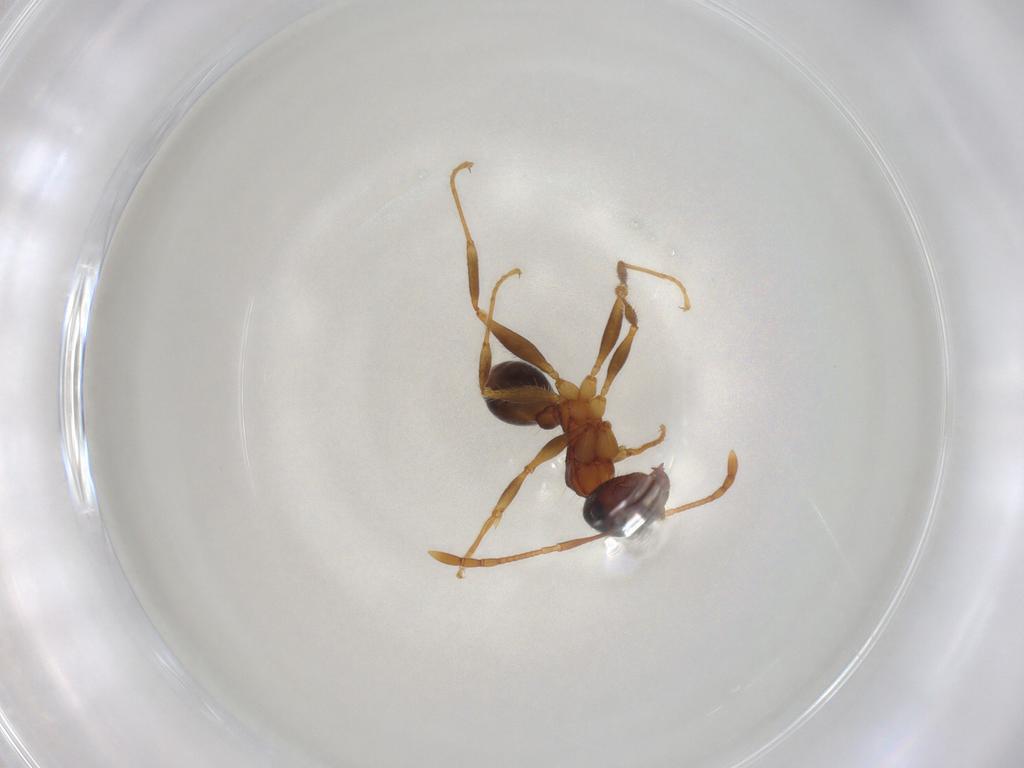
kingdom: Animalia
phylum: Arthropoda
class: Insecta
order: Hymenoptera
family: Formicidae
